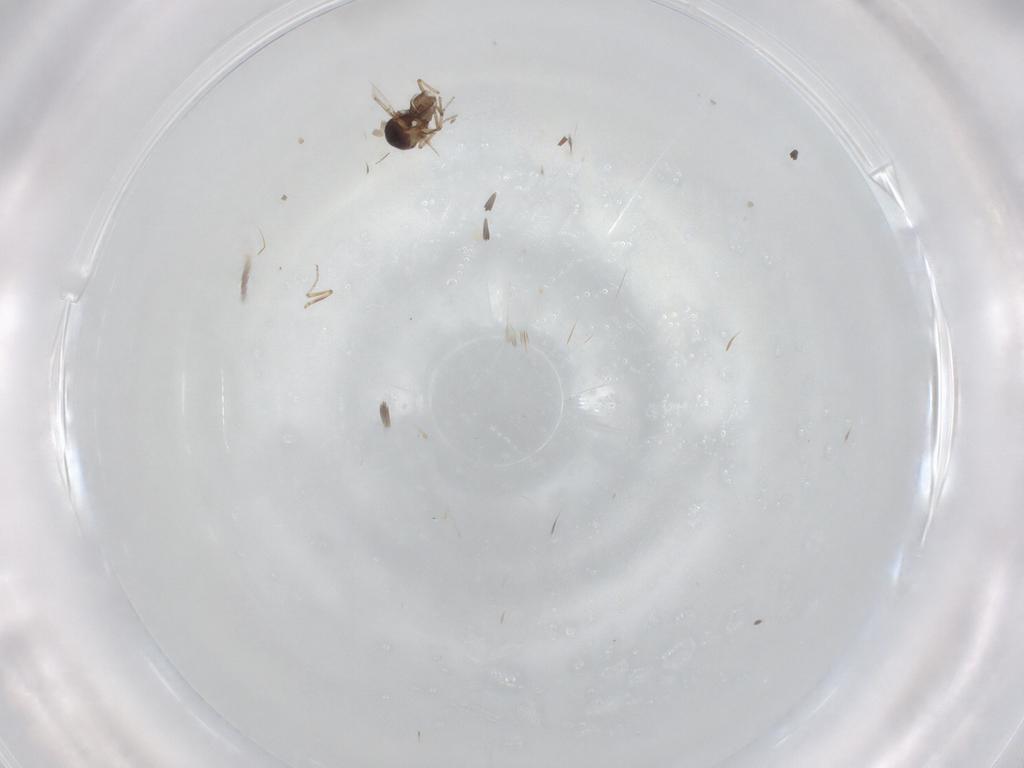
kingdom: Animalia
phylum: Arthropoda
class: Insecta
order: Diptera
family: Ceratopogonidae
